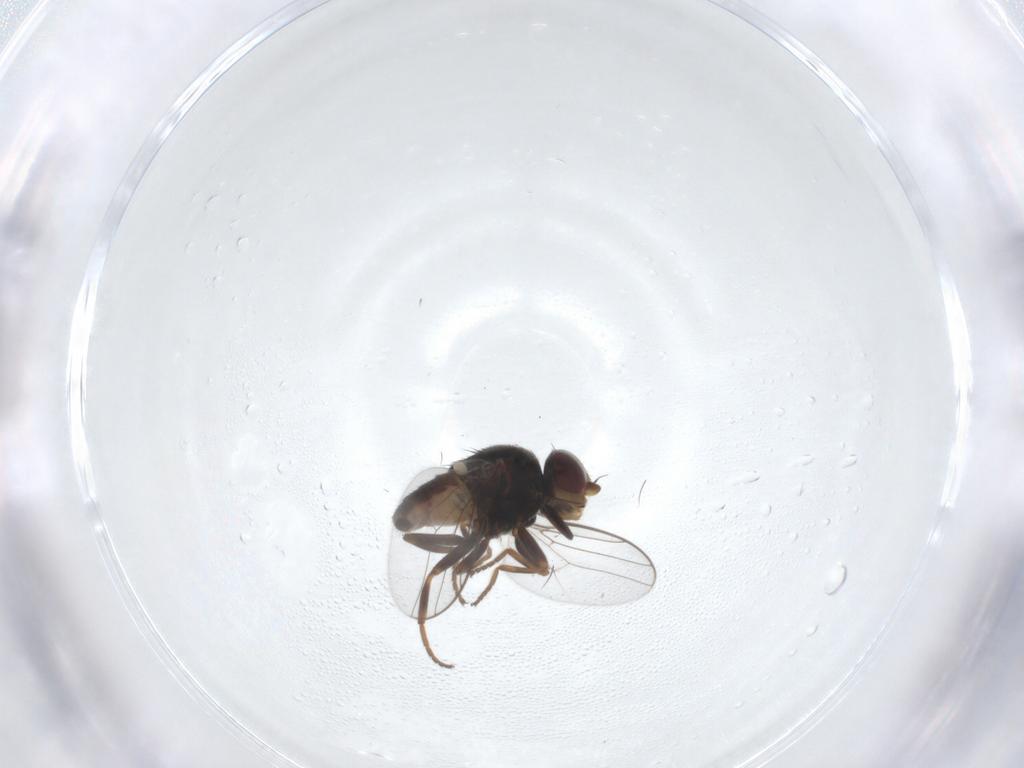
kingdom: Animalia
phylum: Arthropoda
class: Insecta
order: Diptera
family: Chloropidae
